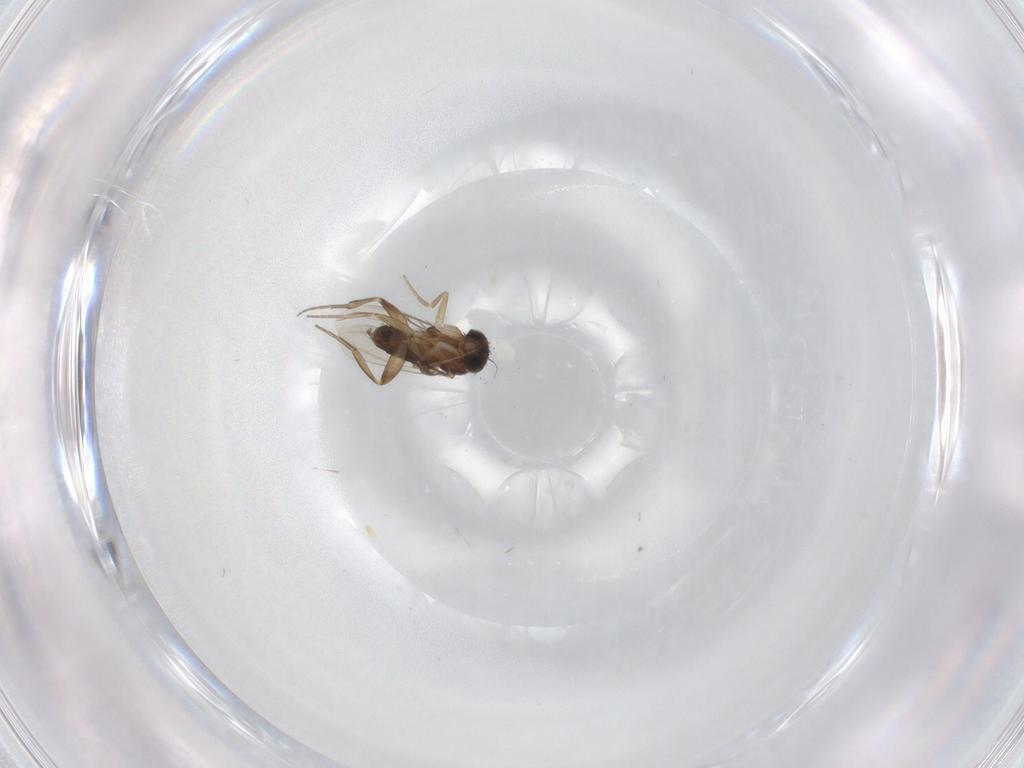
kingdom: Animalia
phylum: Arthropoda
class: Insecta
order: Diptera
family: Phoridae
